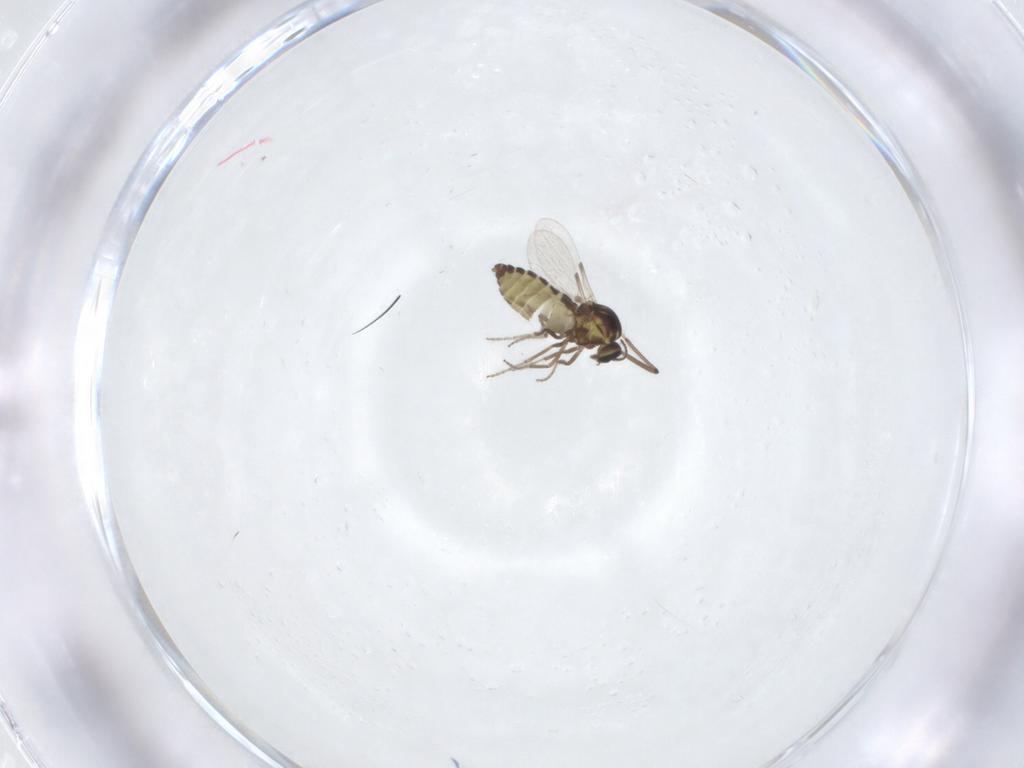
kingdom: Animalia
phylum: Arthropoda
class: Insecta
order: Diptera
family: Ceratopogonidae
